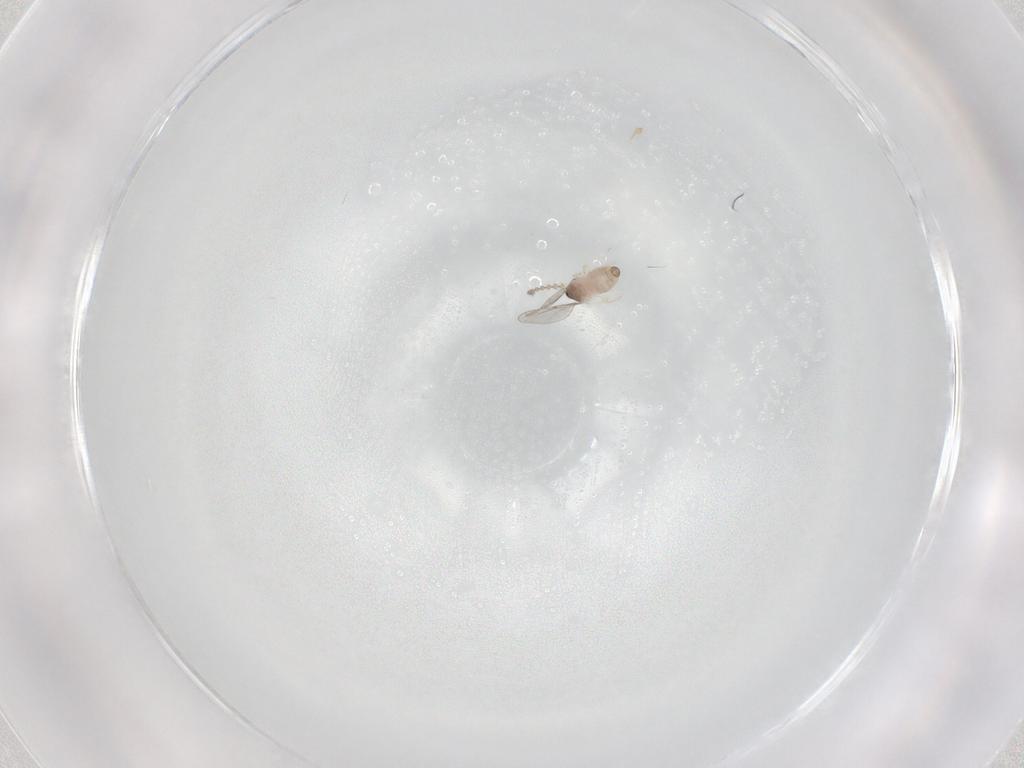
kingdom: Animalia
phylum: Arthropoda
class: Insecta
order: Diptera
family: Cecidomyiidae
